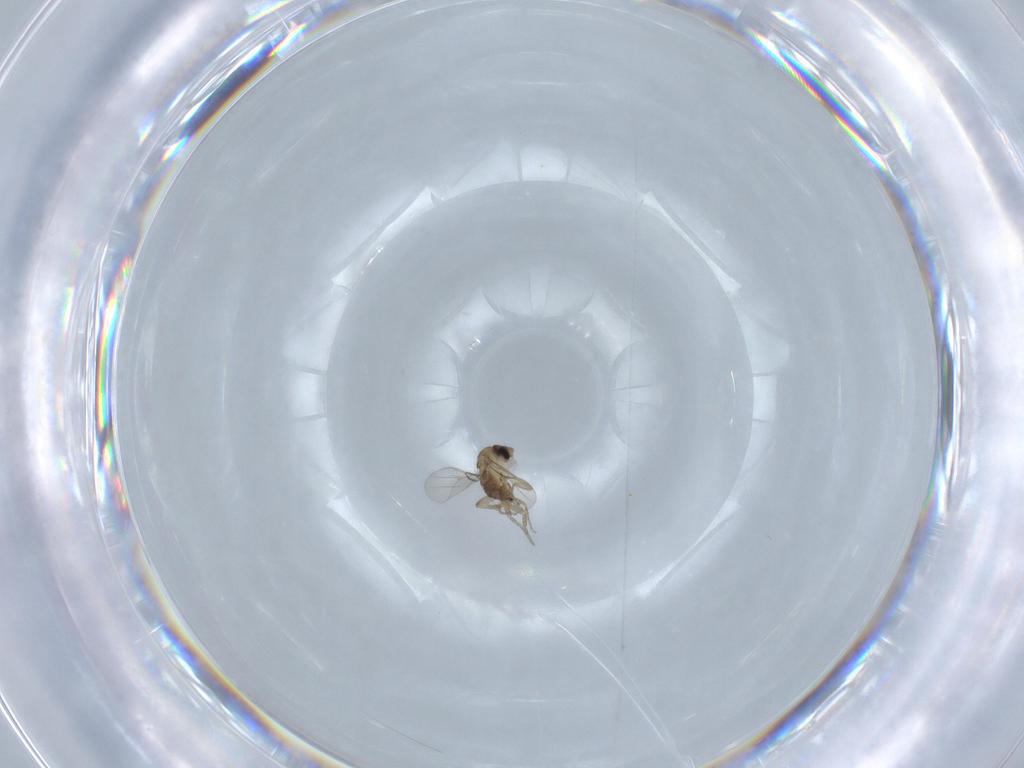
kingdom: Animalia
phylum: Arthropoda
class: Insecta
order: Diptera
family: Phoridae
